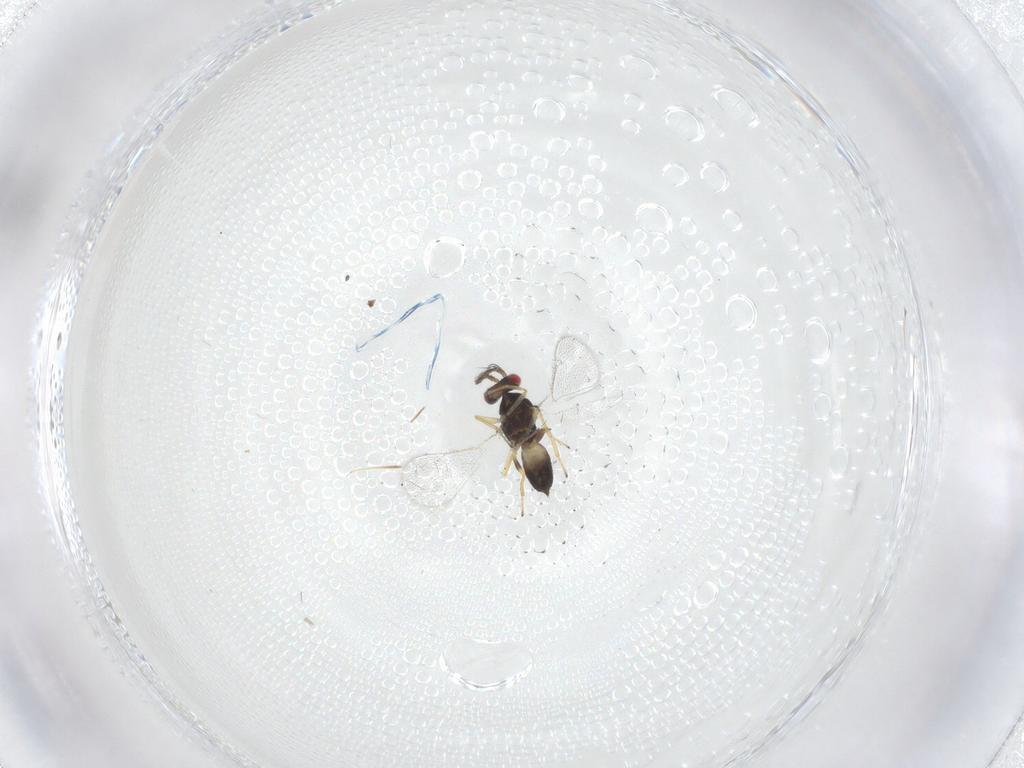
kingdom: Animalia
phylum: Arthropoda
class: Insecta
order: Hymenoptera
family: Eulophidae
